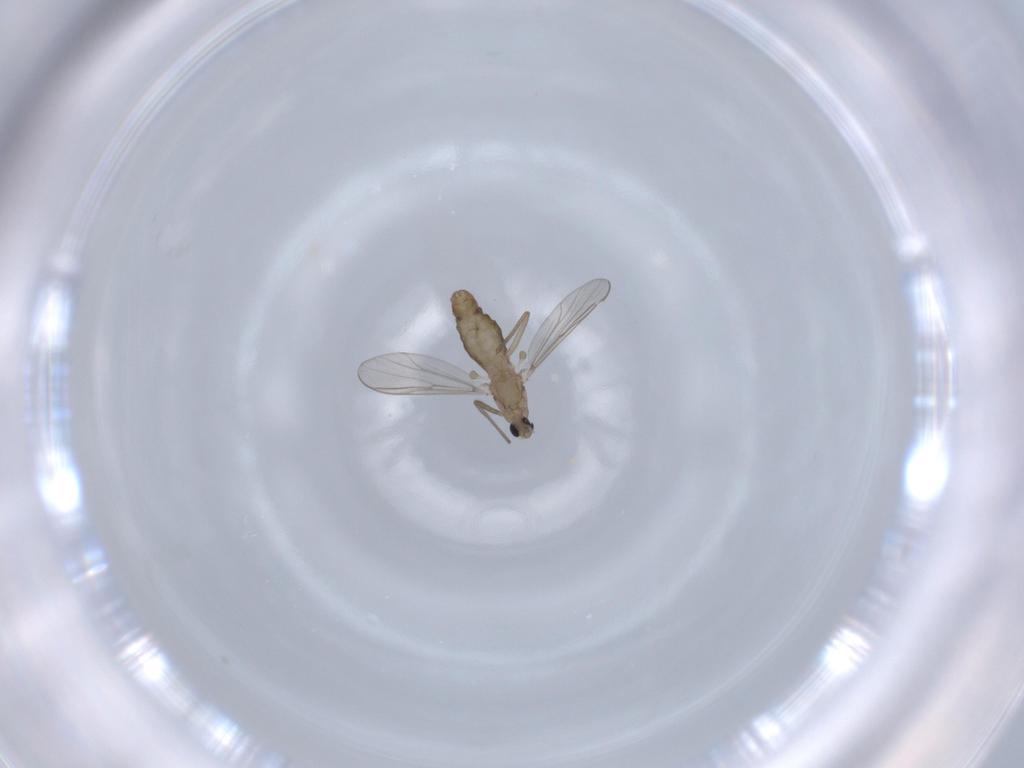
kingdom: Animalia
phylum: Arthropoda
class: Insecta
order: Diptera
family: Chironomidae
